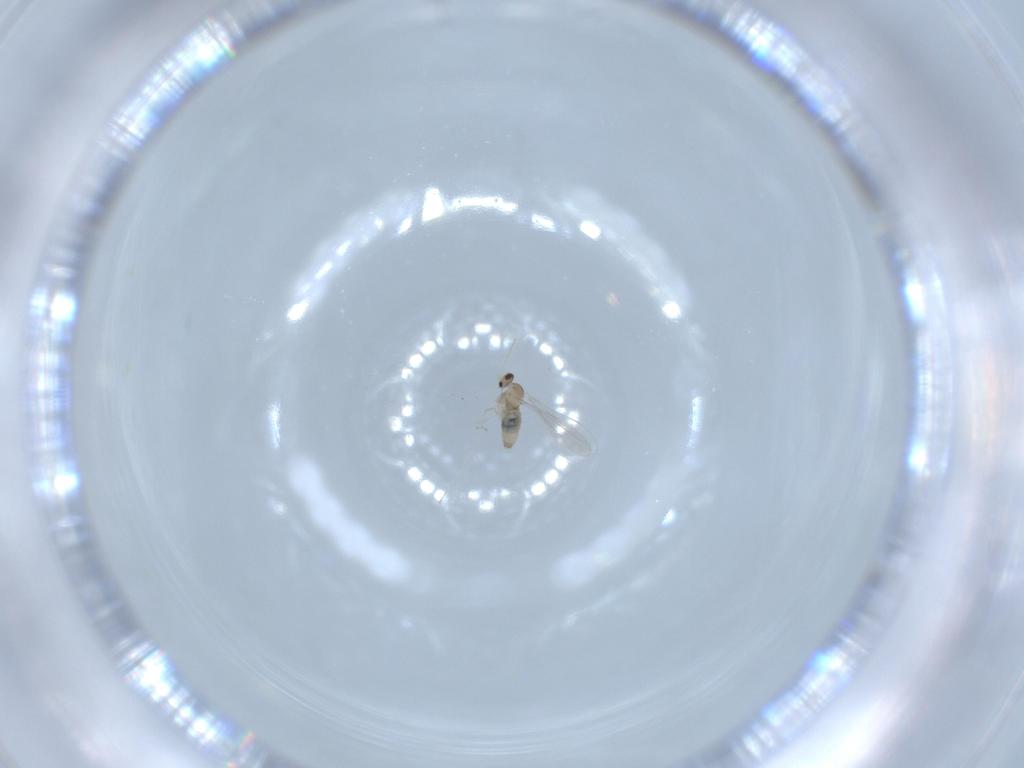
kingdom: Animalia
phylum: Arthropoda
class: Insecta
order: Diptera
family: Cecidomyiidae
